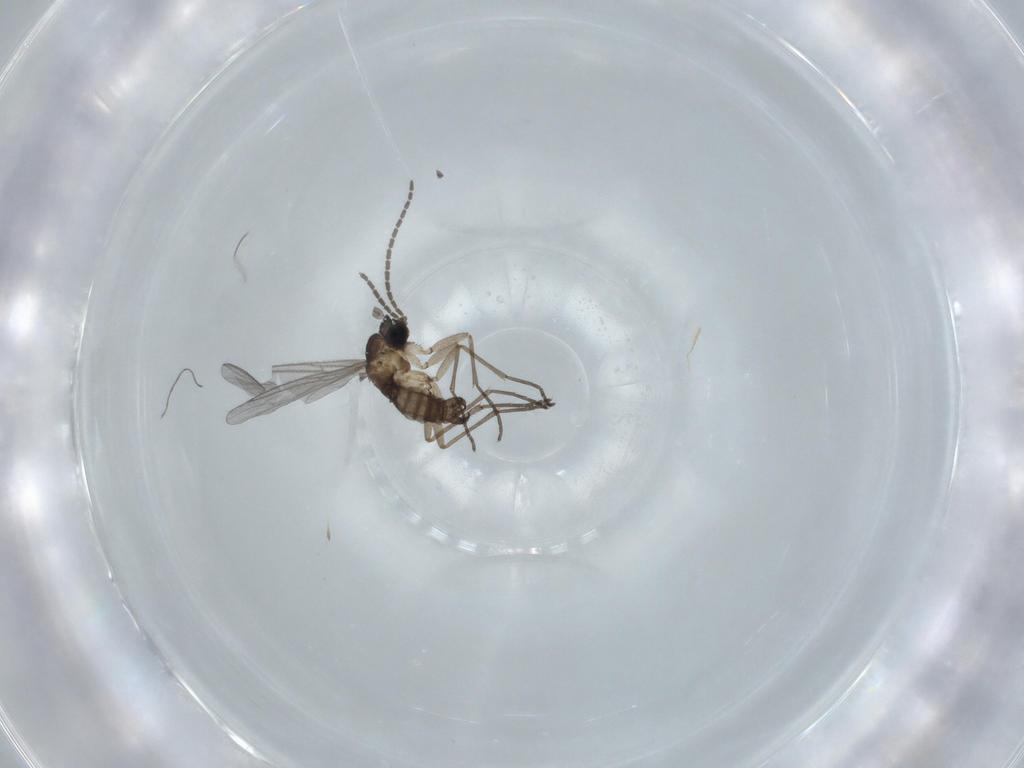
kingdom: Animalia
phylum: Arthropoda
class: Insecta
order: Diptera
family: Sciaridae
